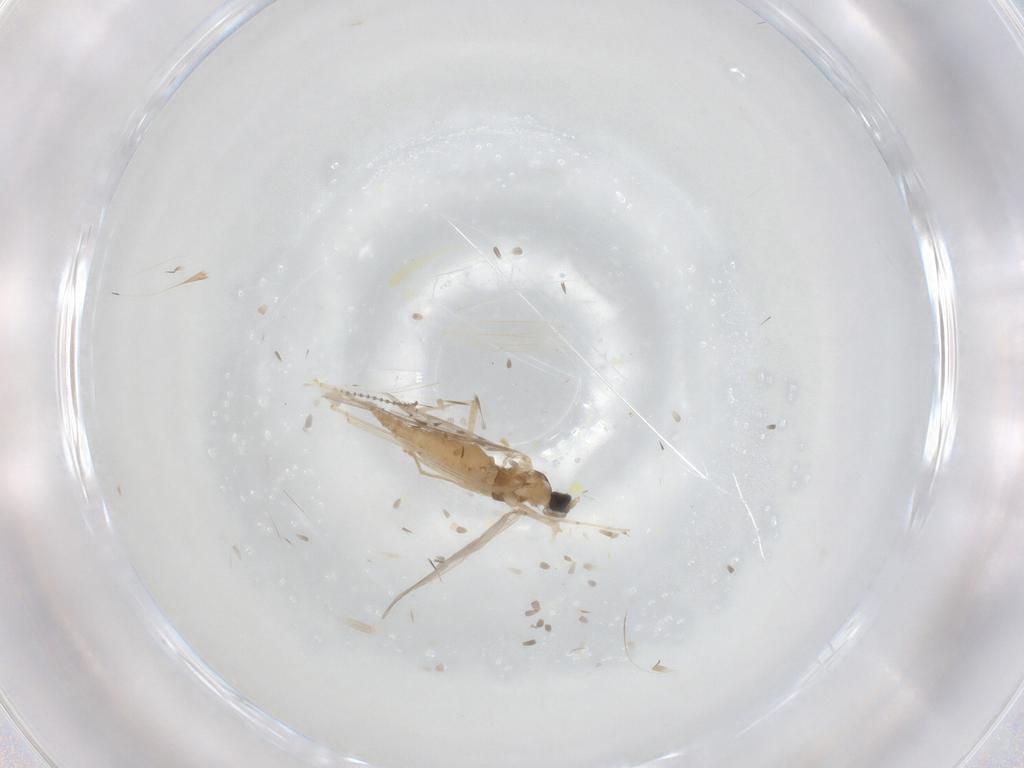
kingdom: Animalia
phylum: Arthropoda
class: Insecta
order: Diptera
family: Cecidomyiidae
